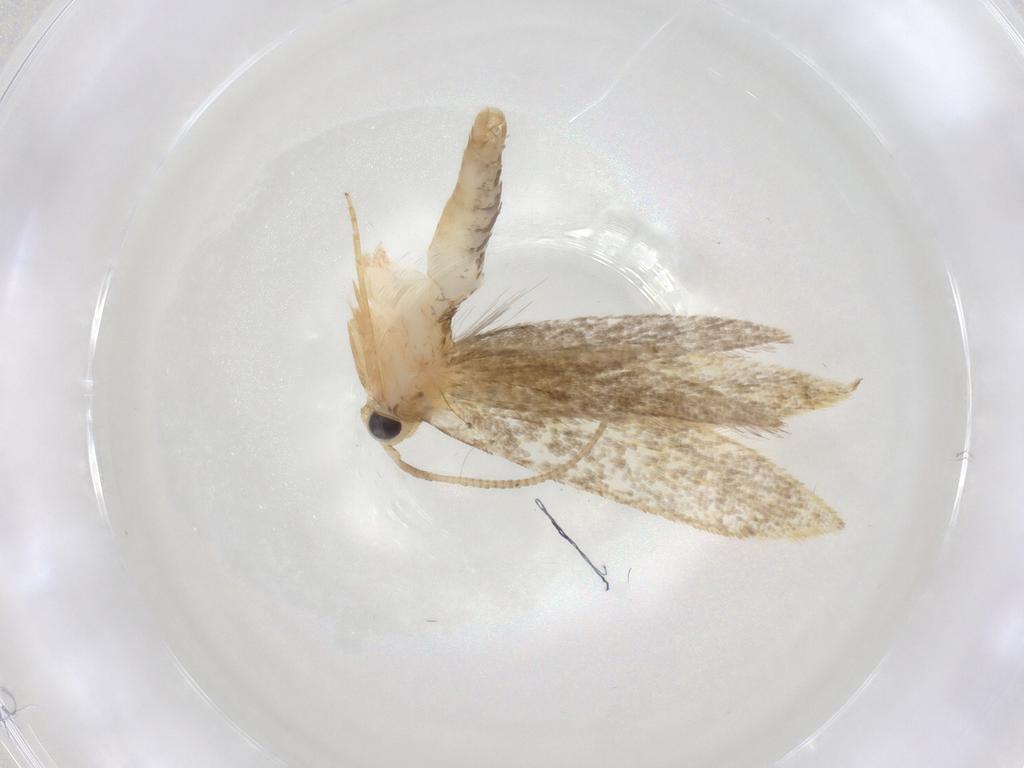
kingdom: Animalia
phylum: Arthropoda
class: Insecta
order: Lepidoptera
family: Tineidae
